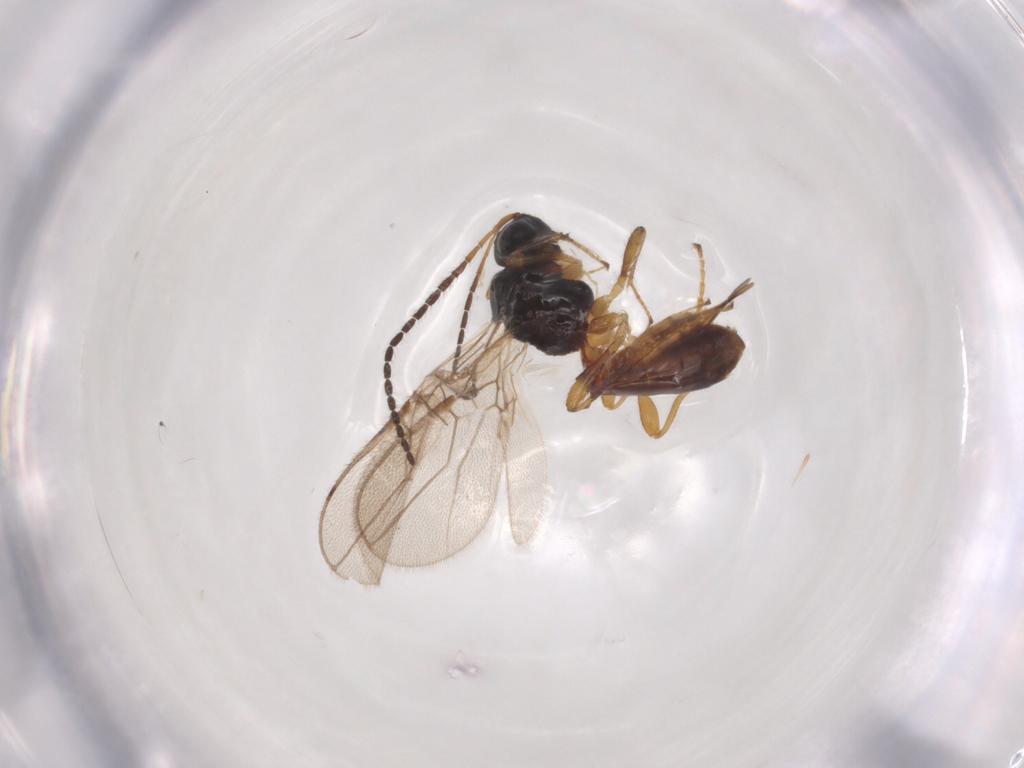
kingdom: Animalia
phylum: Arthropoda
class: Insecta
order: Hymenoptera
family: Braconidae
